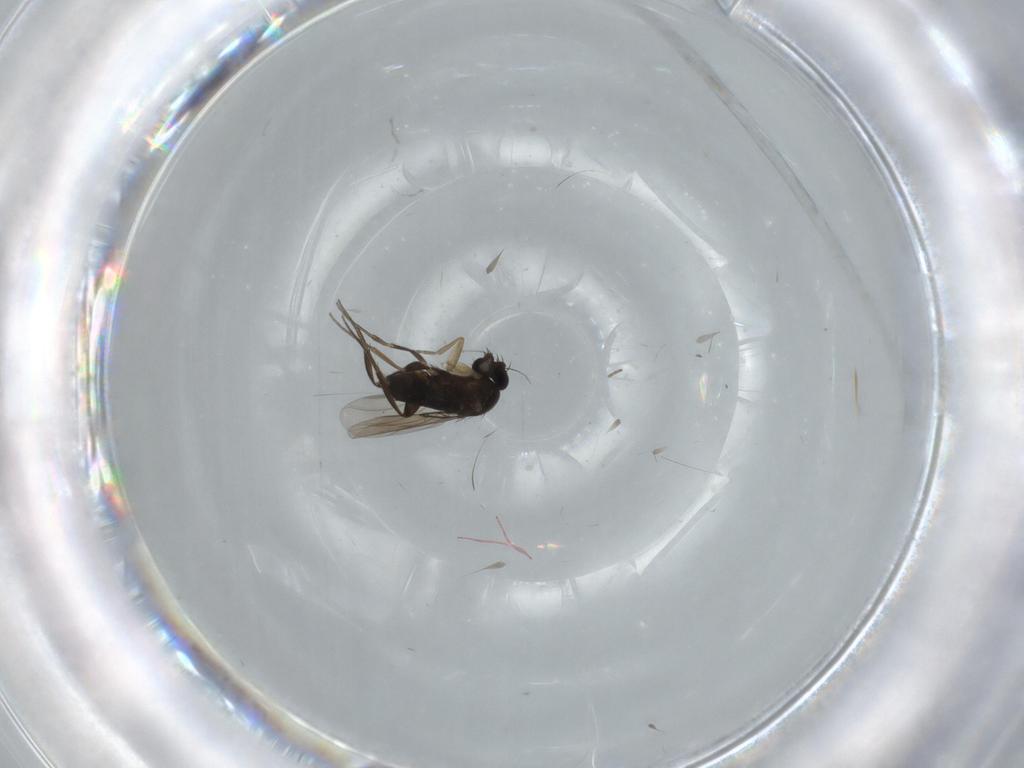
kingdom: Animalia
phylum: Arthropoda
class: Insecta
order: Diptera
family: Phoridae
